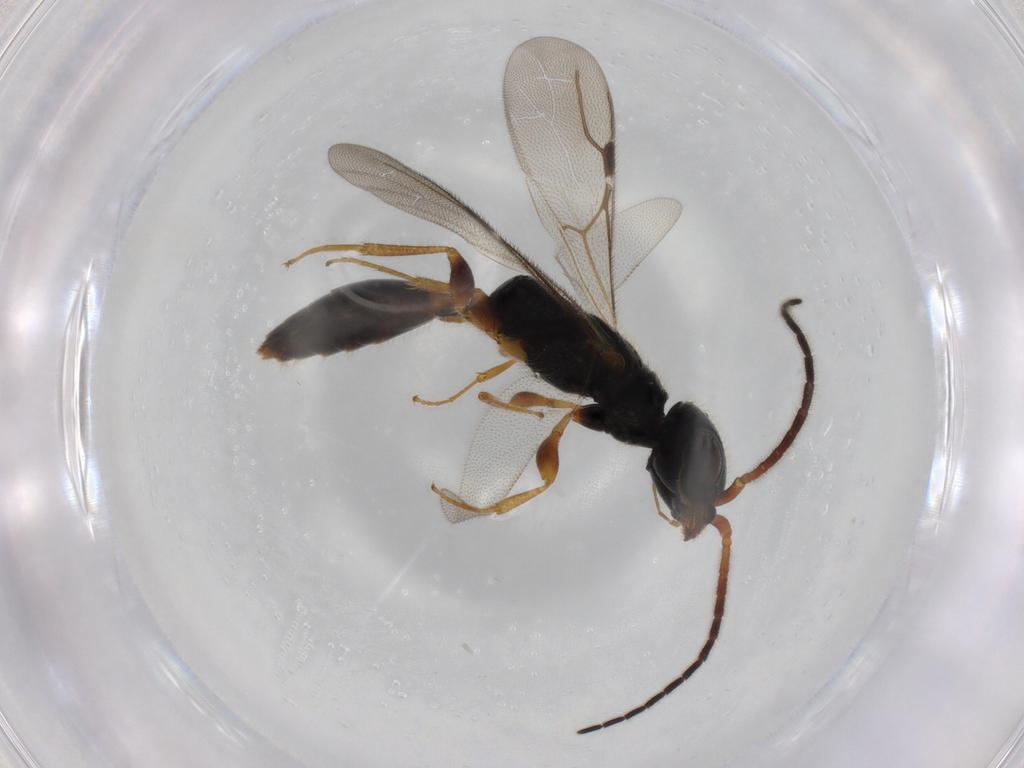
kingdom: Animalia
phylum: Arthropoda
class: Insecta
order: Hymenoptera
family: Bethylidae
